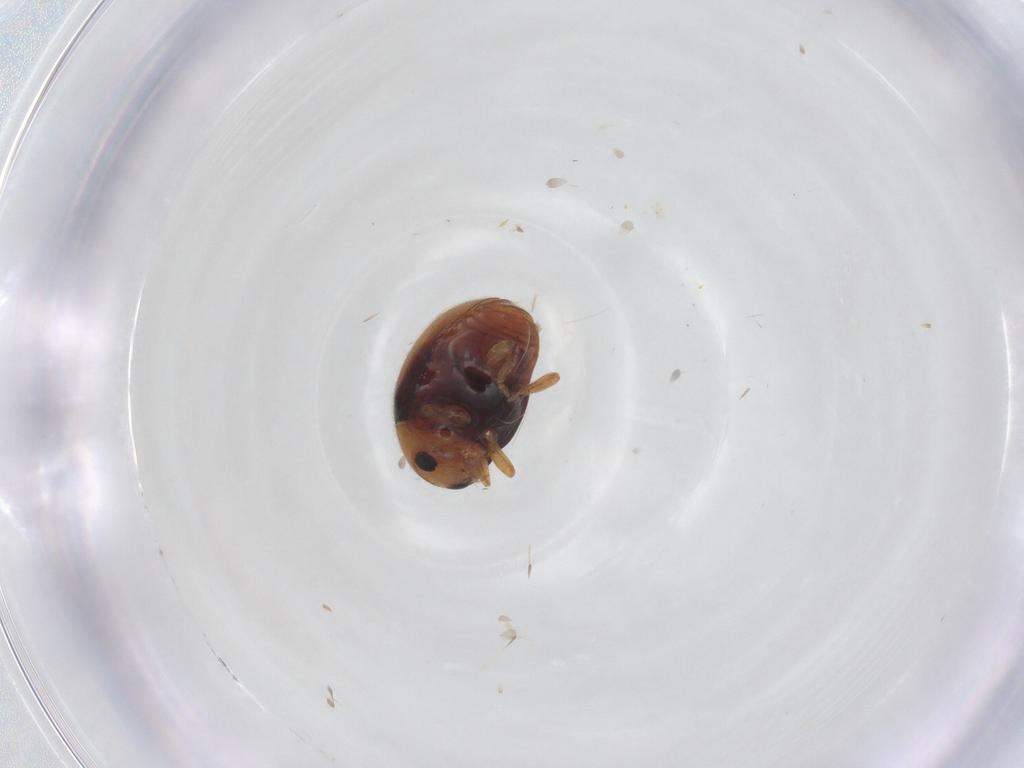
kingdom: Animalia
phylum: Arthropoda
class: Insecta
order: Coleoptera
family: Coccinellidae
